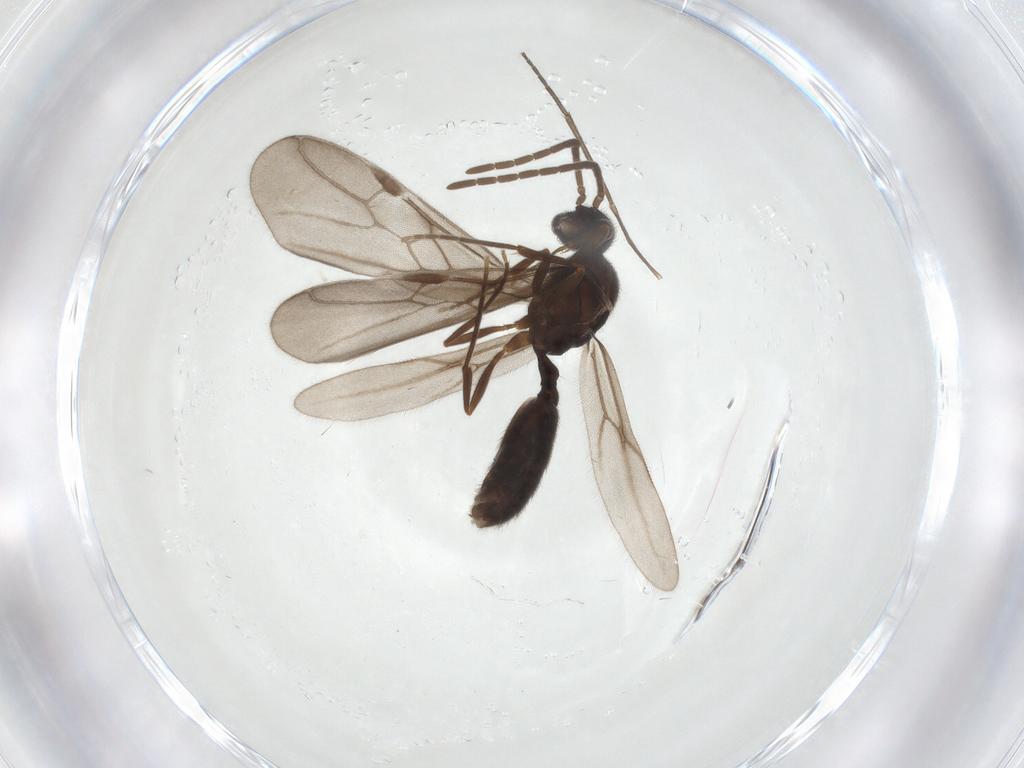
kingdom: Animalia
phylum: Arthropoda
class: Insecta
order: Hymenoptera
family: Formicidae
